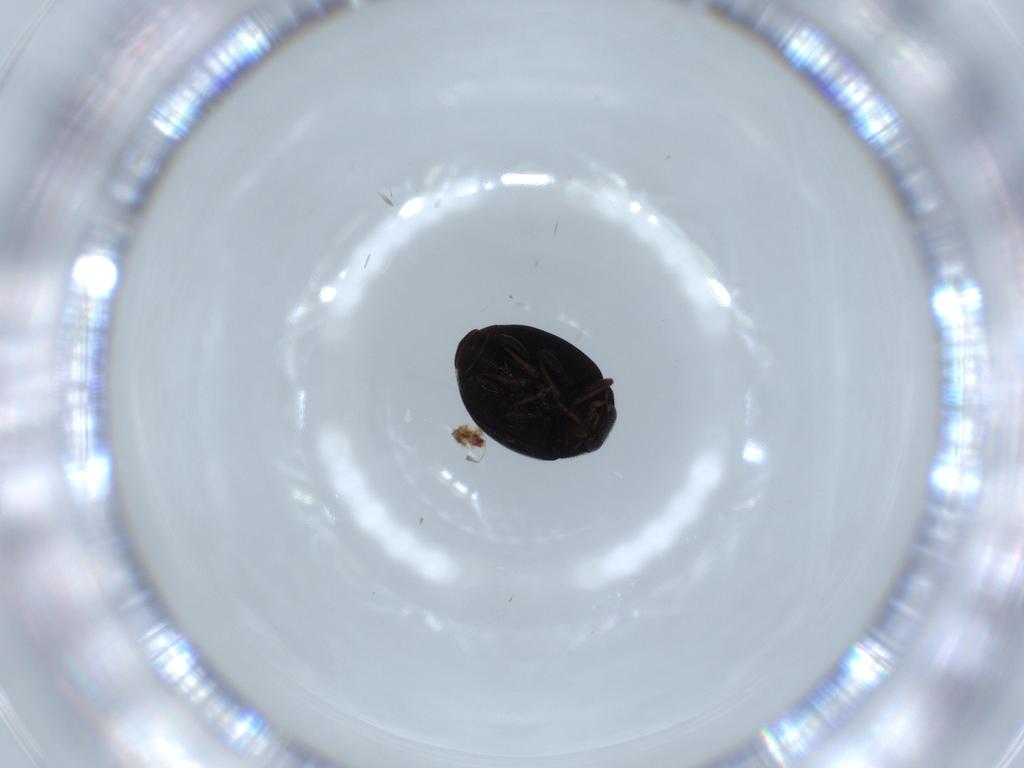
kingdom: Animalia
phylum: Arthropoda
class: Insecta
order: Coleoptera
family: Coccinellidae
